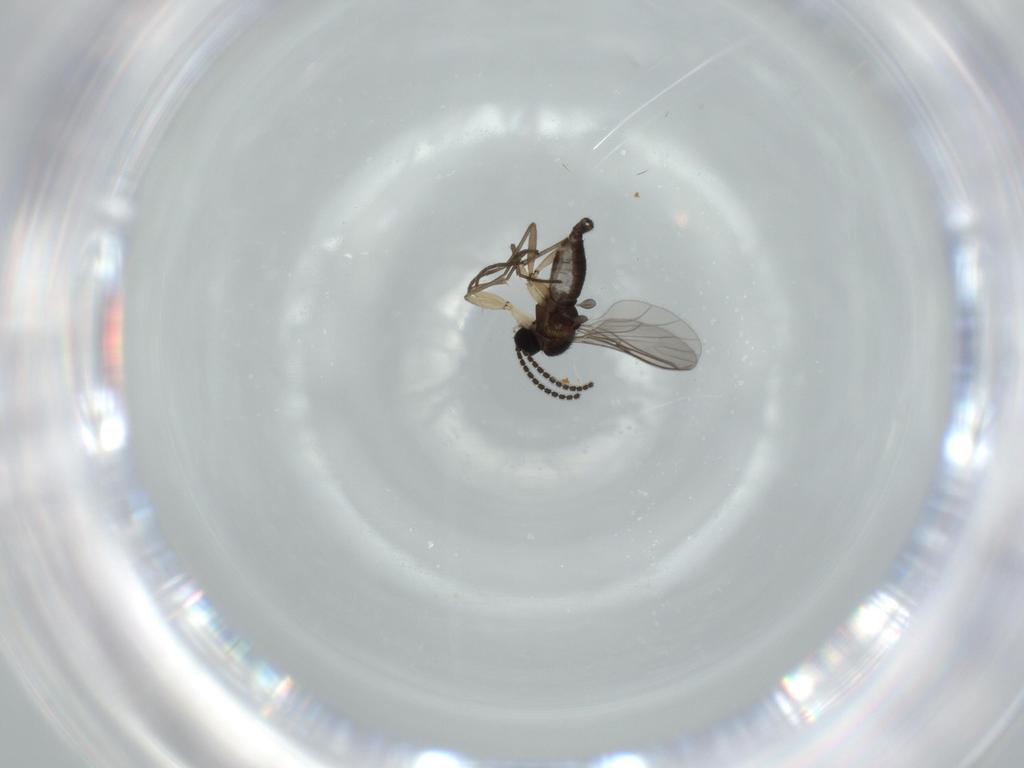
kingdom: Animalia
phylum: Arthropoda
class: Insecta
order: Diptera
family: Sciaridae
